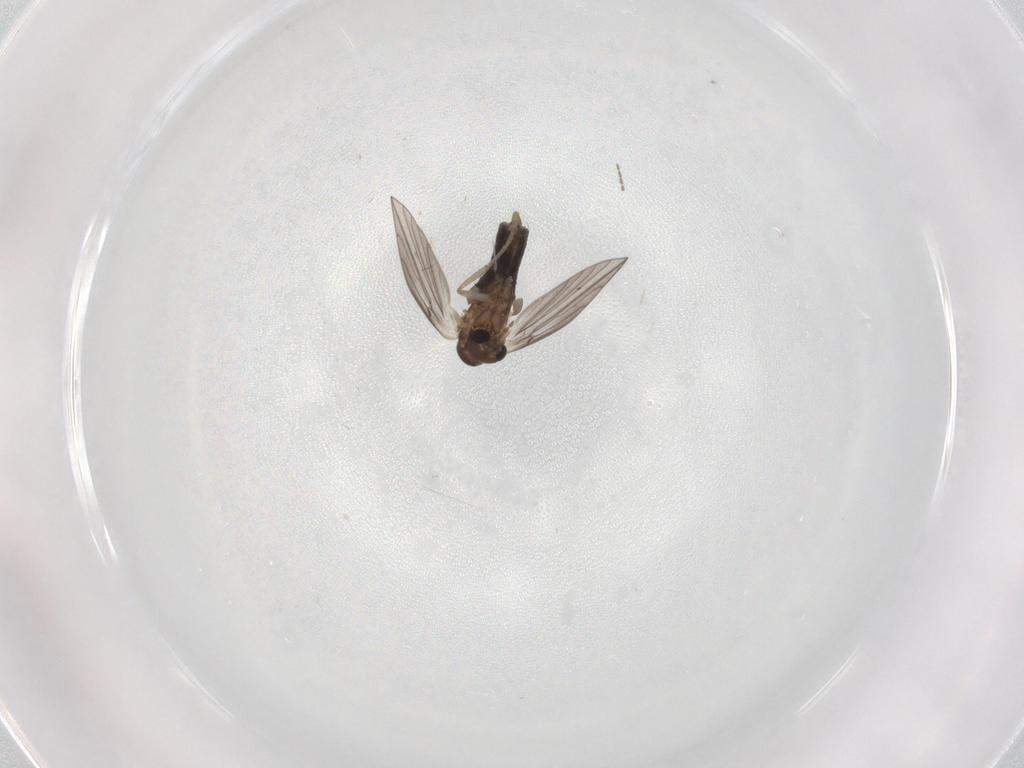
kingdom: Animalia
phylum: Arthropoda
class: Insecta
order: Diptera
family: Psychodidae
